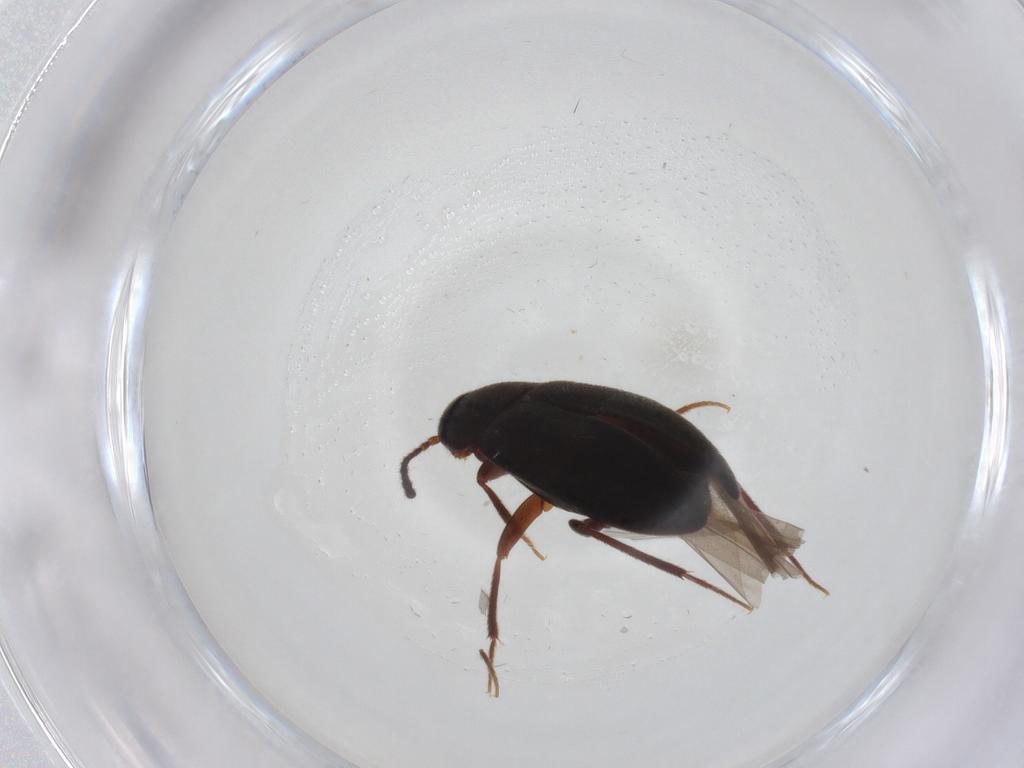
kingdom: Animalia
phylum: Arthropoda
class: Insecta
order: Coleoptera
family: Leiodidae
